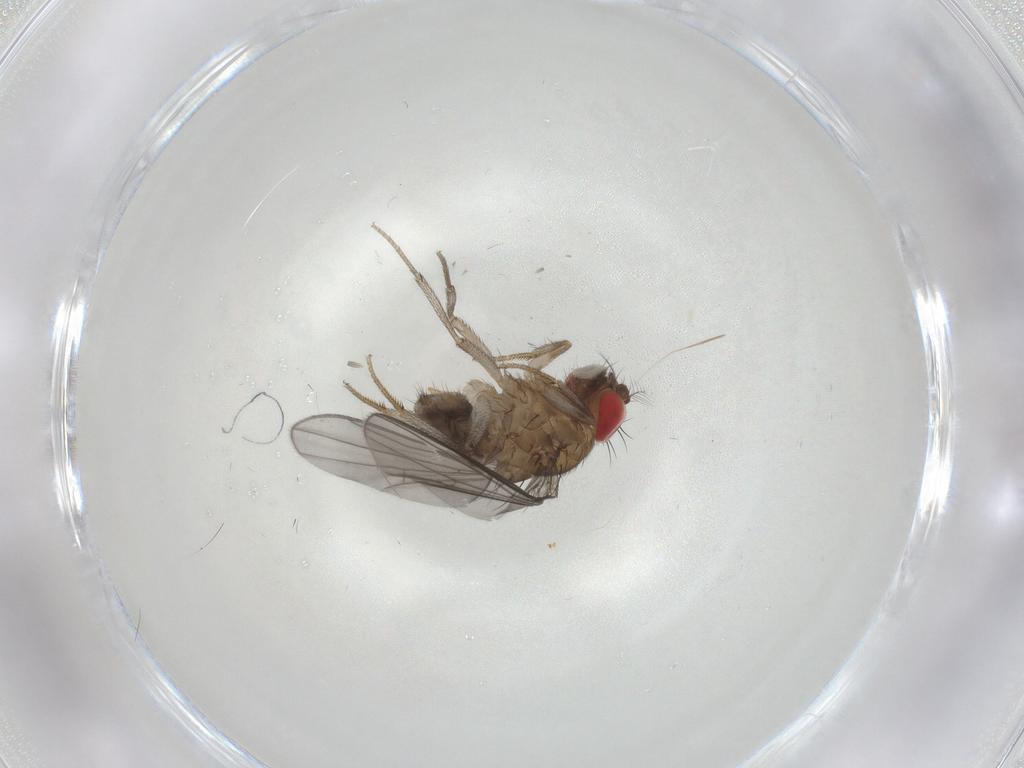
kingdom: Animalia
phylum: Arthropoda
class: Insecta
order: Diptera
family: Drosophilidae
